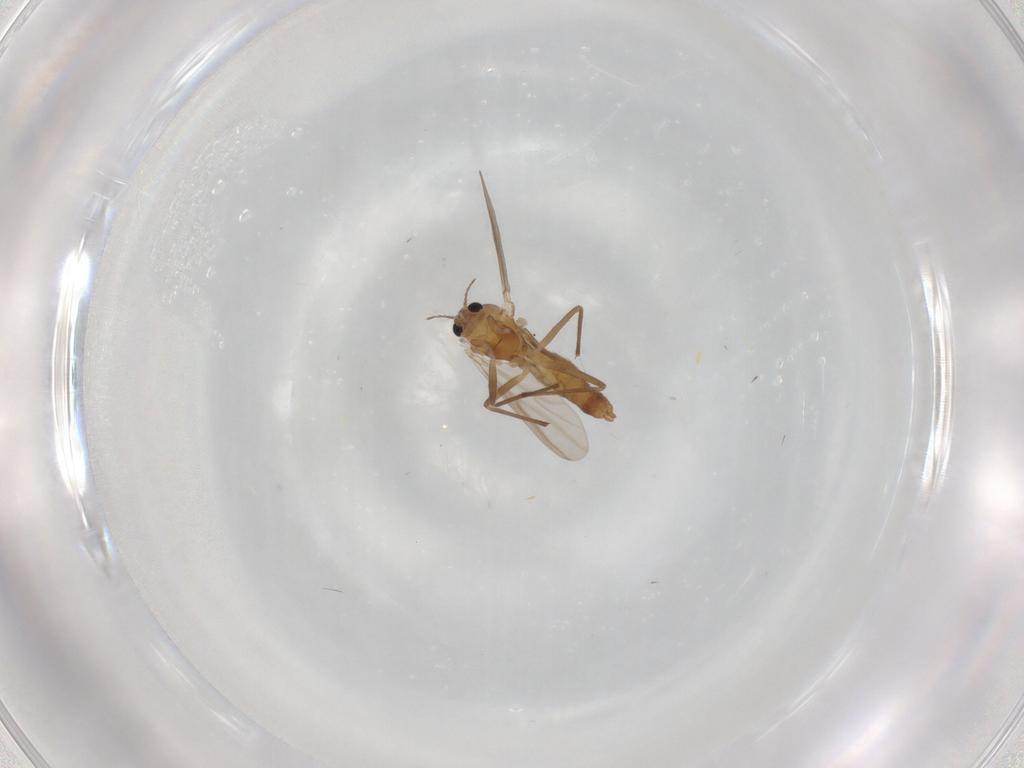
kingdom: Animalia
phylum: Arthropoda
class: Insecta
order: Diptera
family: Chironomidae
